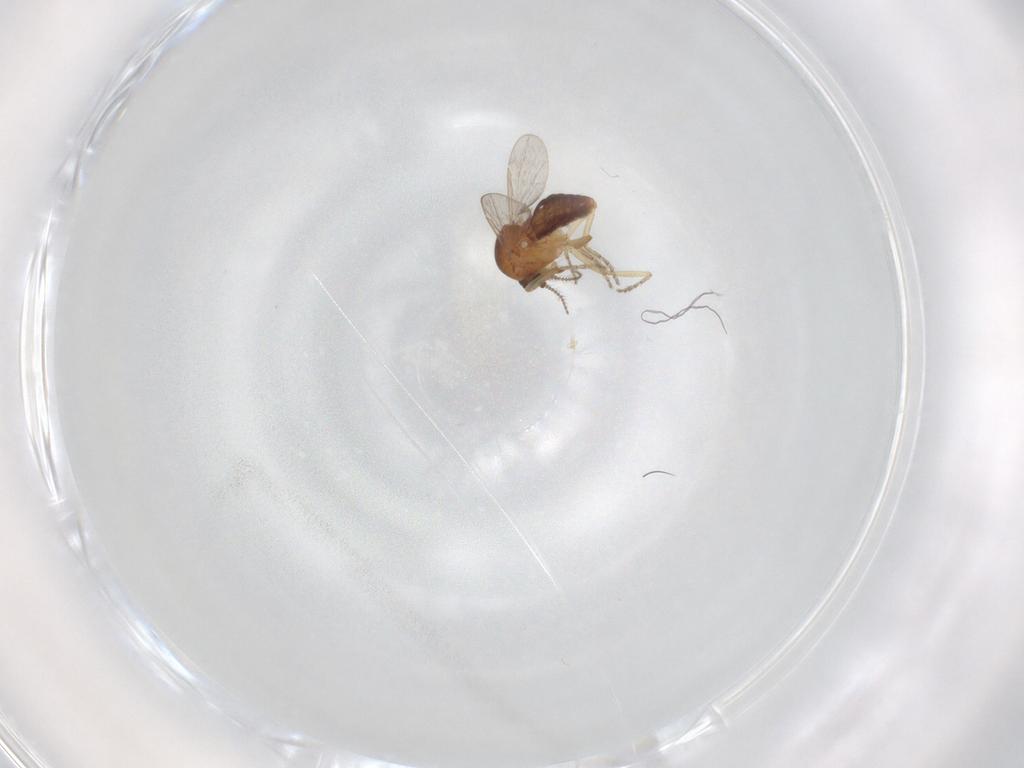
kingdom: Animalia
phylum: Arthropoda
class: Insecta
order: Diptera
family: Ceratopogonidae
